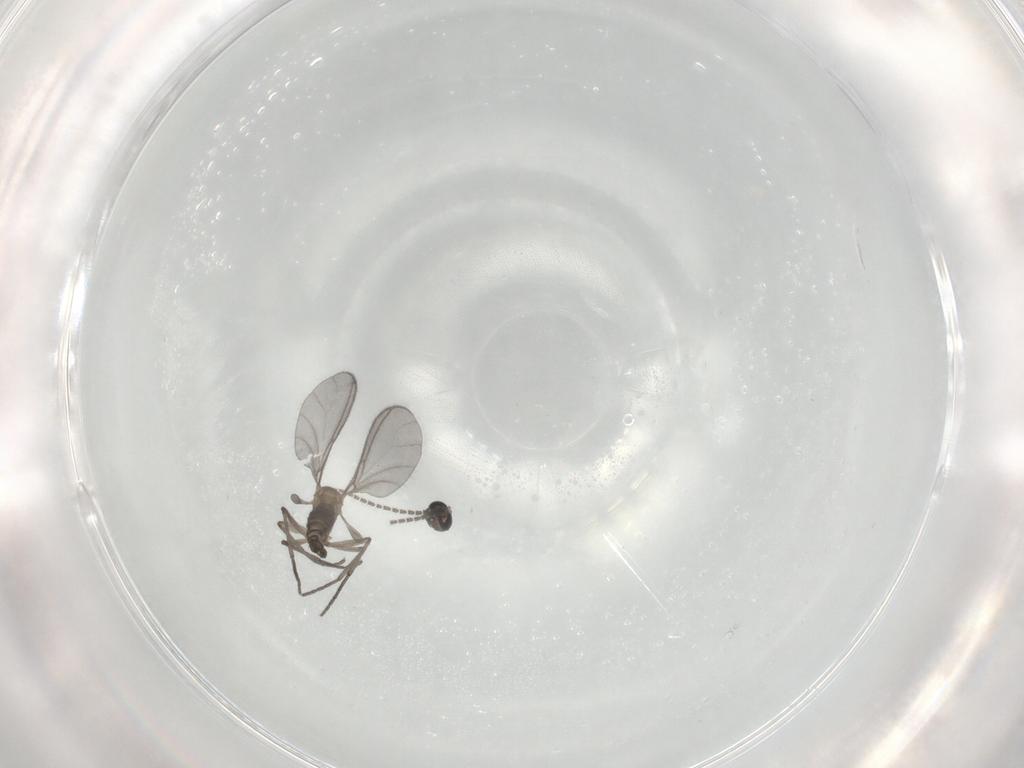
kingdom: Animalia
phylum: Arthropoda
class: Insecta
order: Diptera
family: Sciaridae
